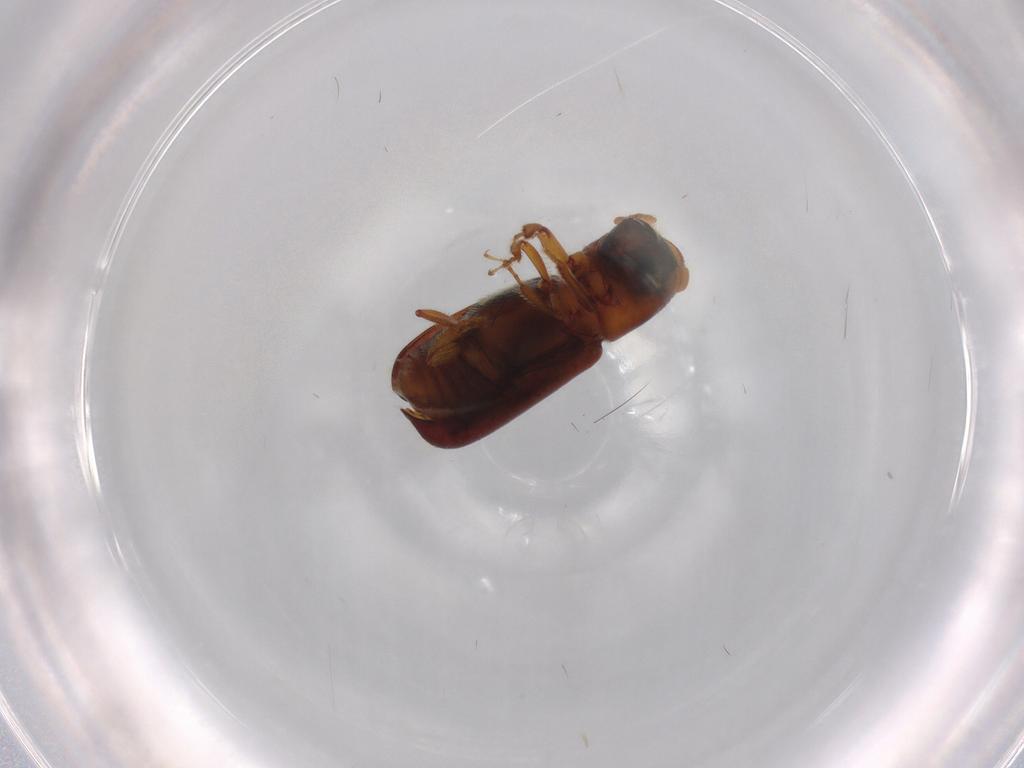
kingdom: Animalia
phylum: Arthropoda
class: Insecta
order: Coleoptera
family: Curculionidae
